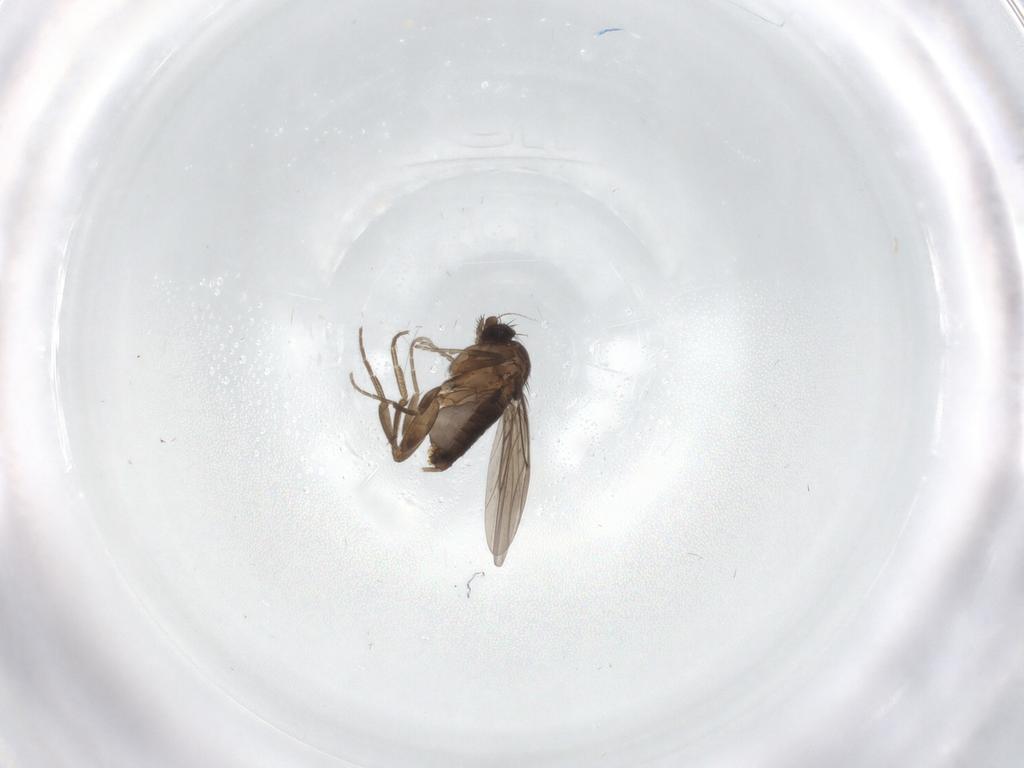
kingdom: Animalia
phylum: Arthropoda
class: Insecta
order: Diptera
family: Phoridae
